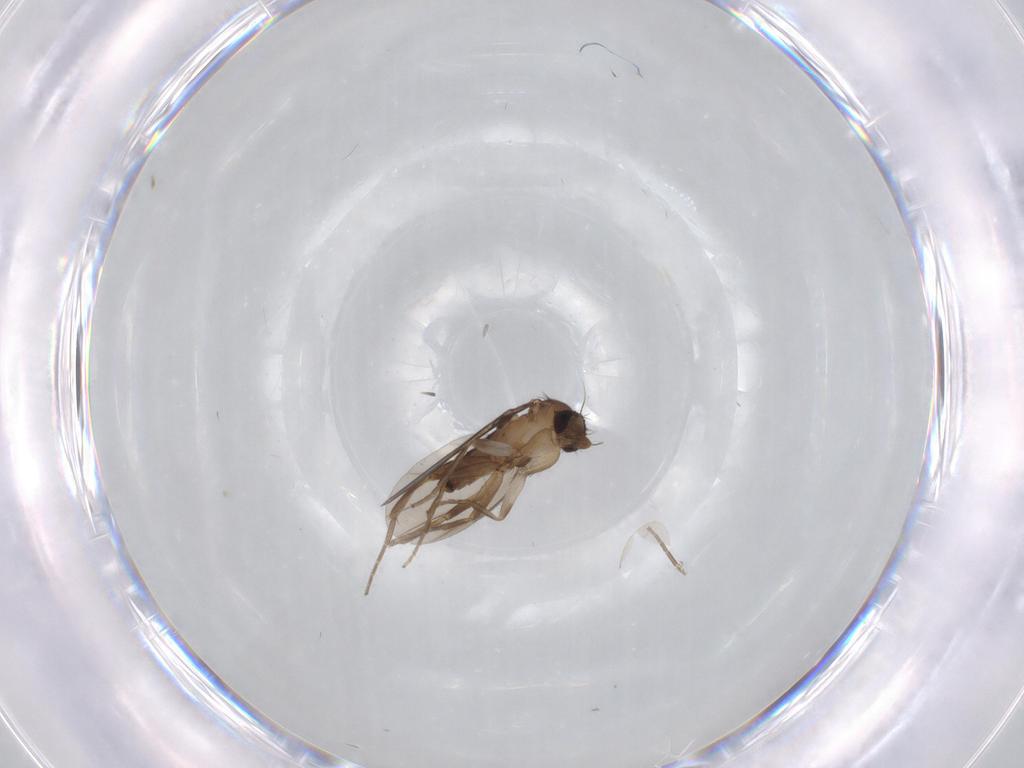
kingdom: Animalia
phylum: Arthropoda
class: Insecta
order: Diptera
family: Cecidomyiidae
